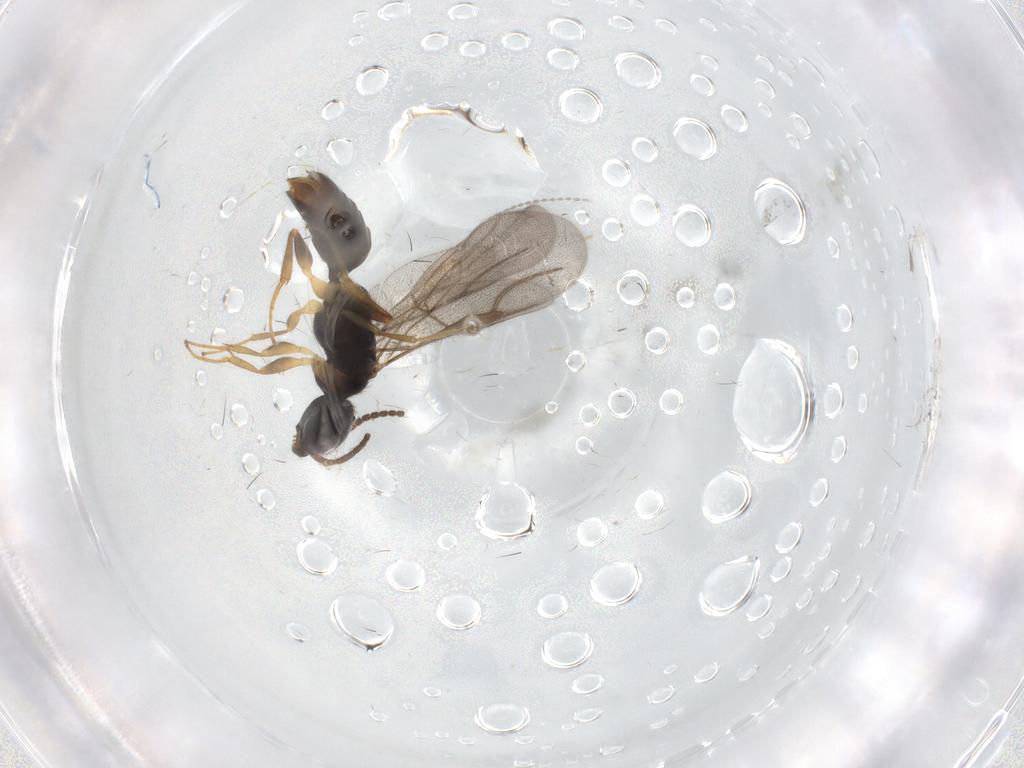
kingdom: Animalia
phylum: Arthropoda
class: Insecta
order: Hymenoptera
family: Bethylidae
